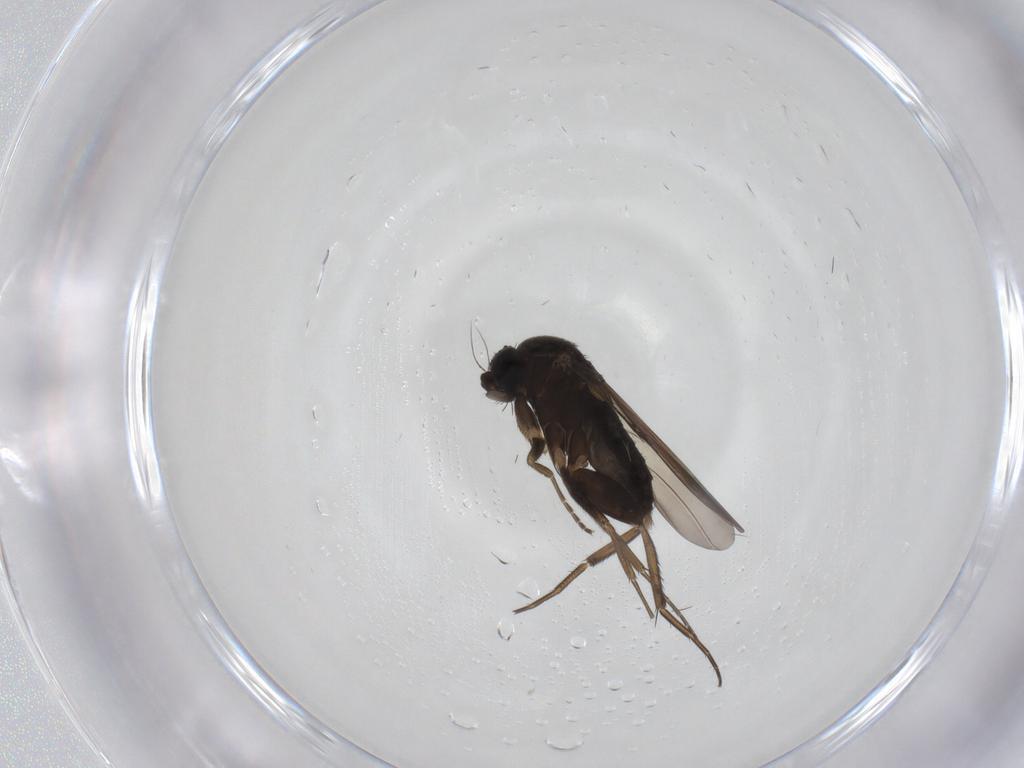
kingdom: Animalia
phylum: Arthropoda
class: Insecta
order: Diptera
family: Phoridae
